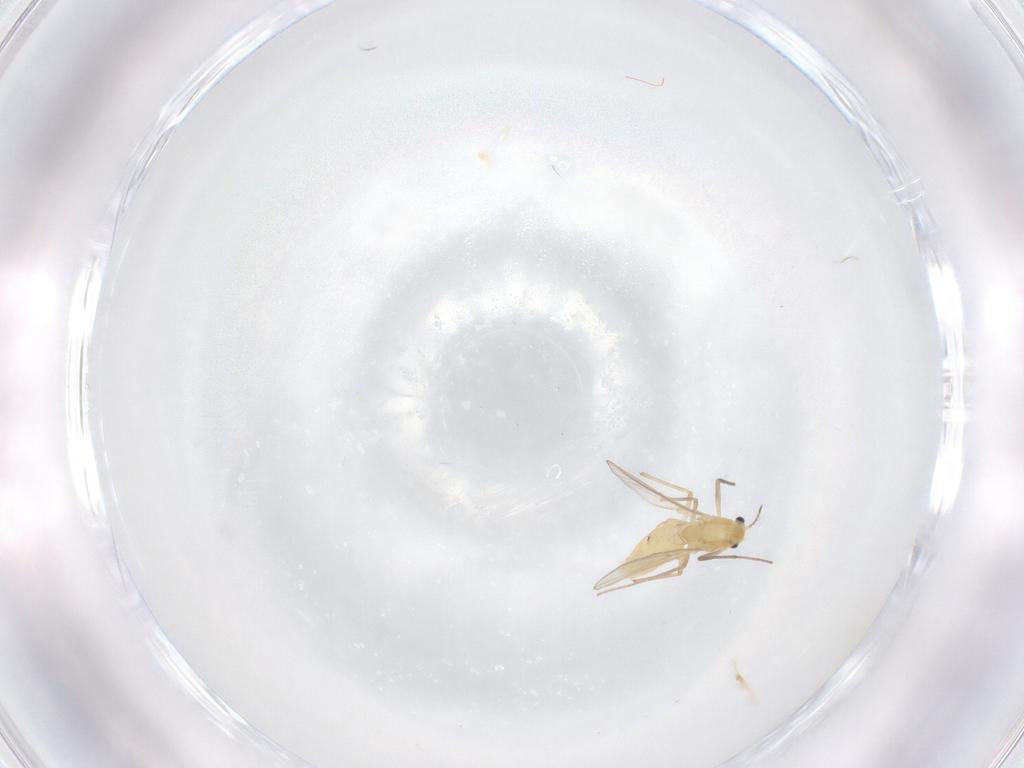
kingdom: Animalia
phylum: Arthropoda
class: Insecta
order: Diptera
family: Chironomidae
